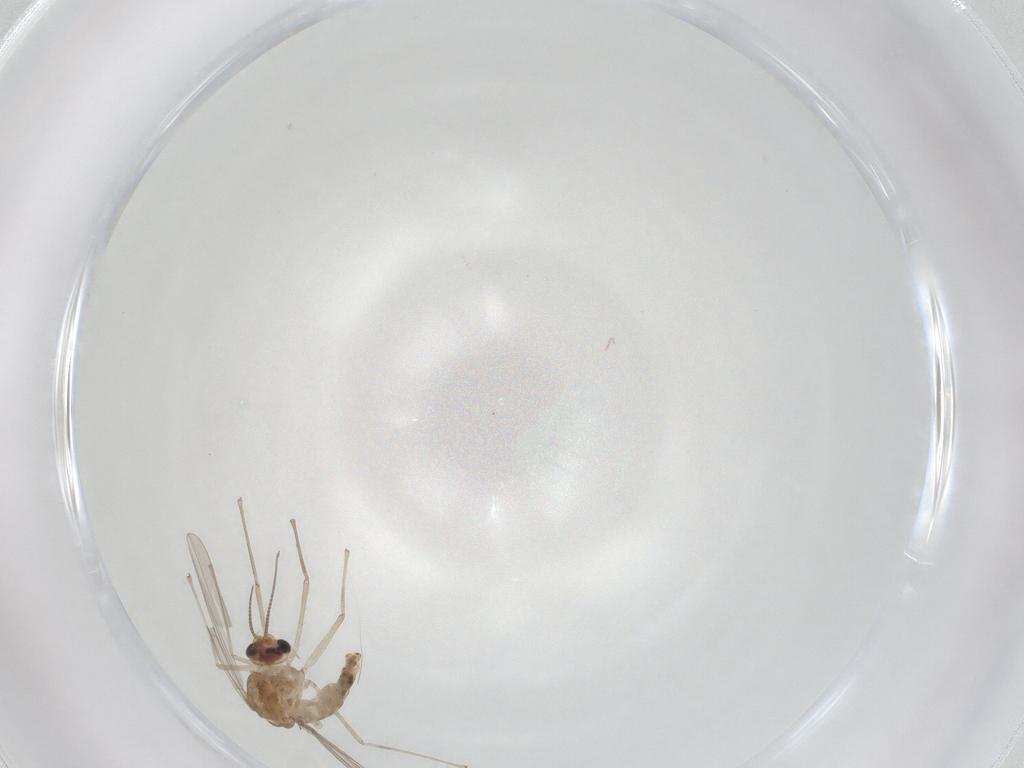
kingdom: Animalia
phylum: Arthropoda
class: Insecta
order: Diptera
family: Chironomidae
